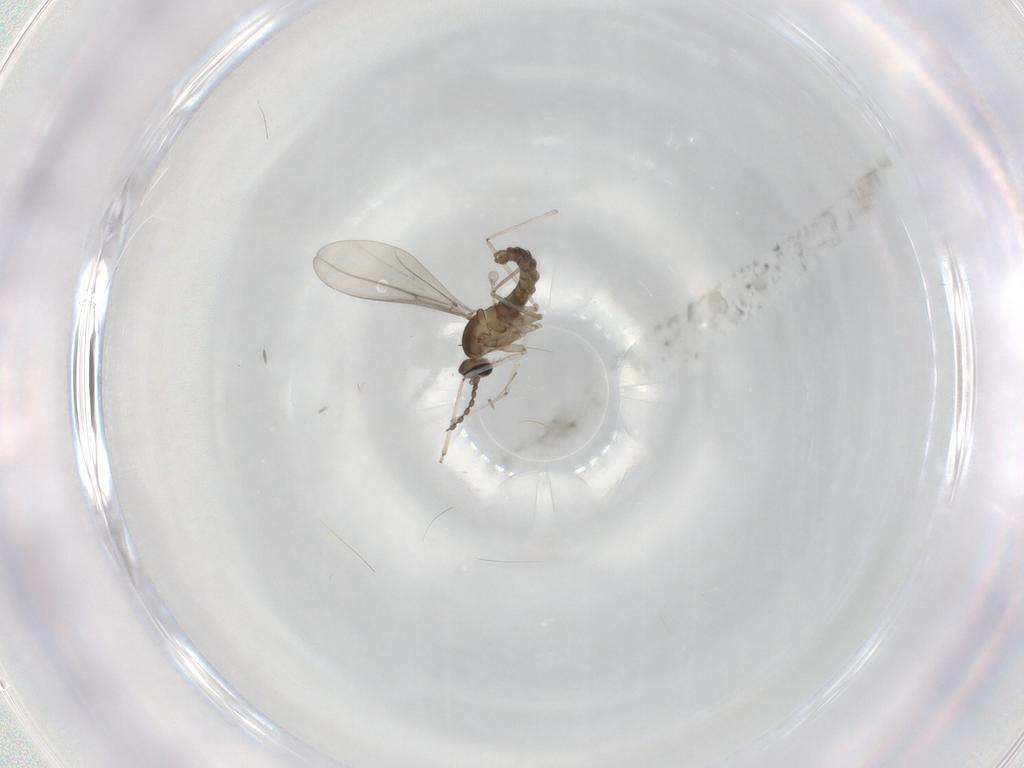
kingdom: Animalia
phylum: Arthropoda
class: Insecta
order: Diptera
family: Cecidomyiidae
